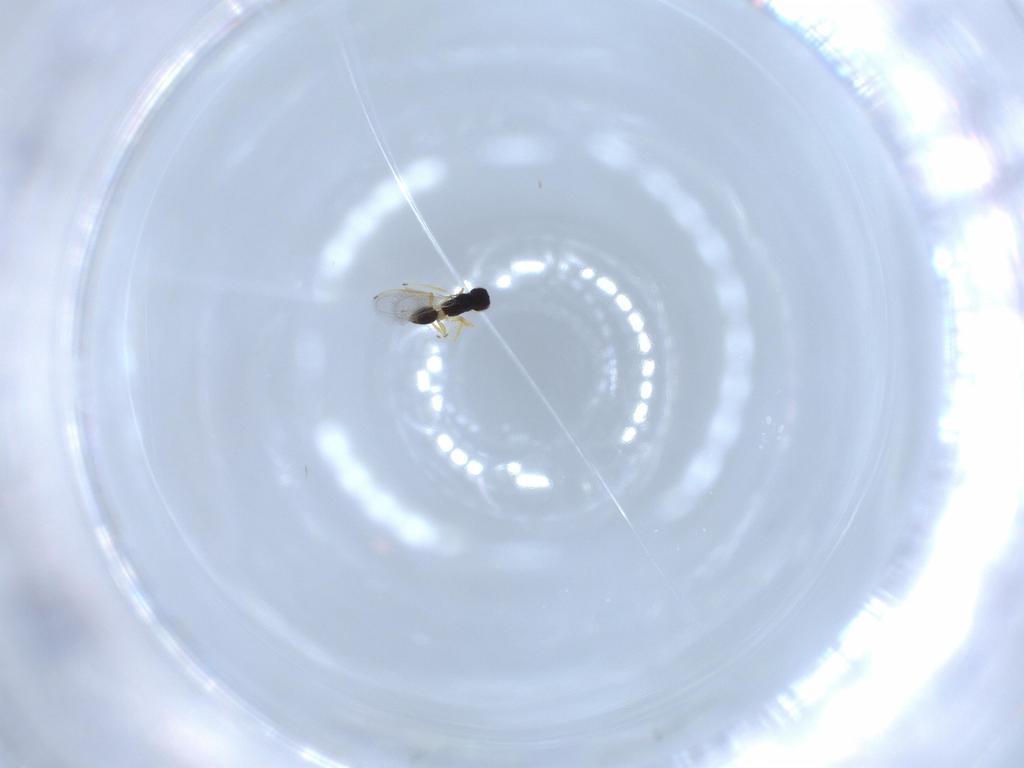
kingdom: Animalia
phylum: Arthropoda
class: Insecta
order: Hymenoptera
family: Mymaridae
